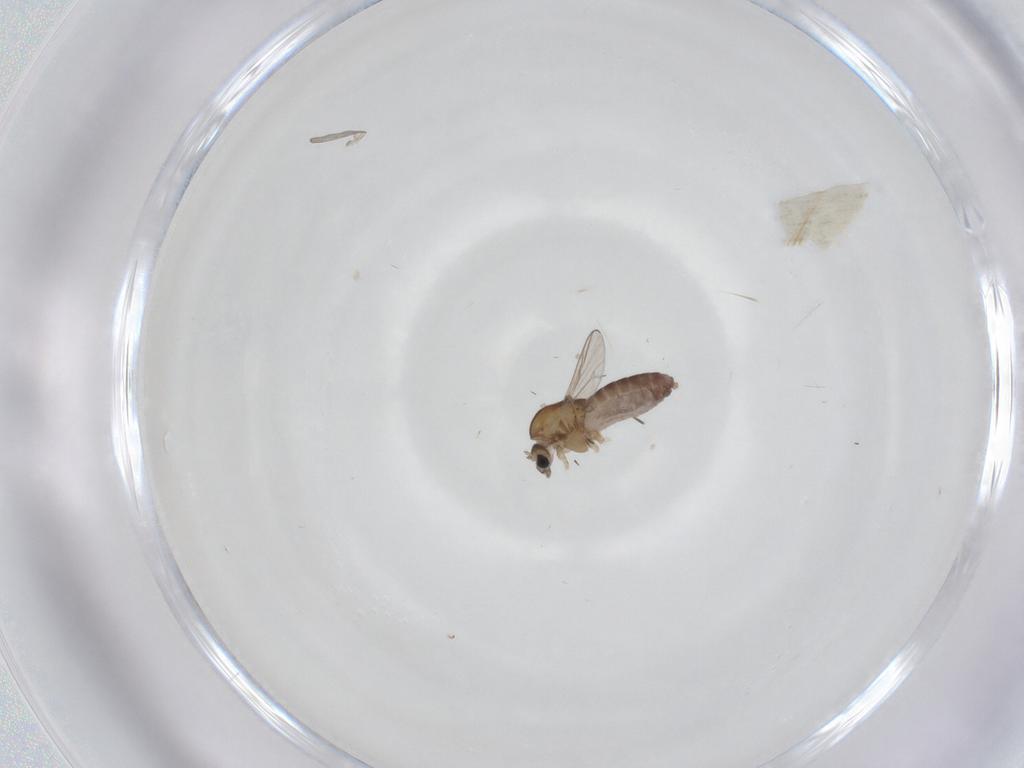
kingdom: Animalia
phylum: Arthropoda
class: Insecta
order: Diptera
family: Chironomidae
